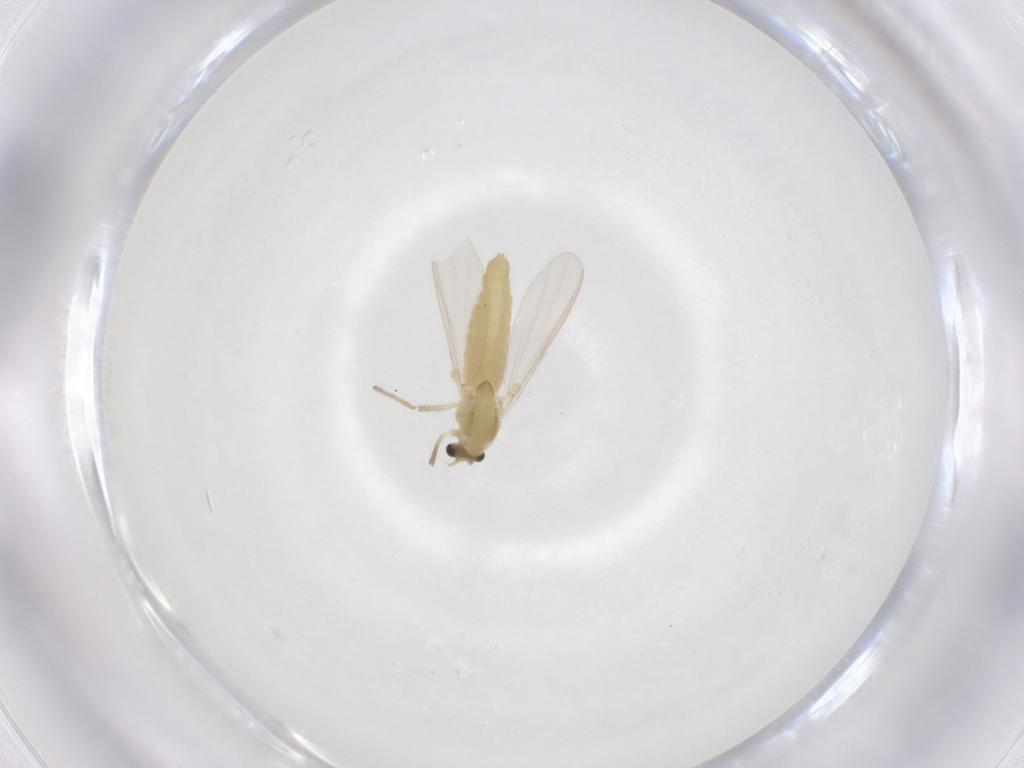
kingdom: Animalia
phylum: Arthropoda
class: Insecta
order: Diptera
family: Chironomidae
